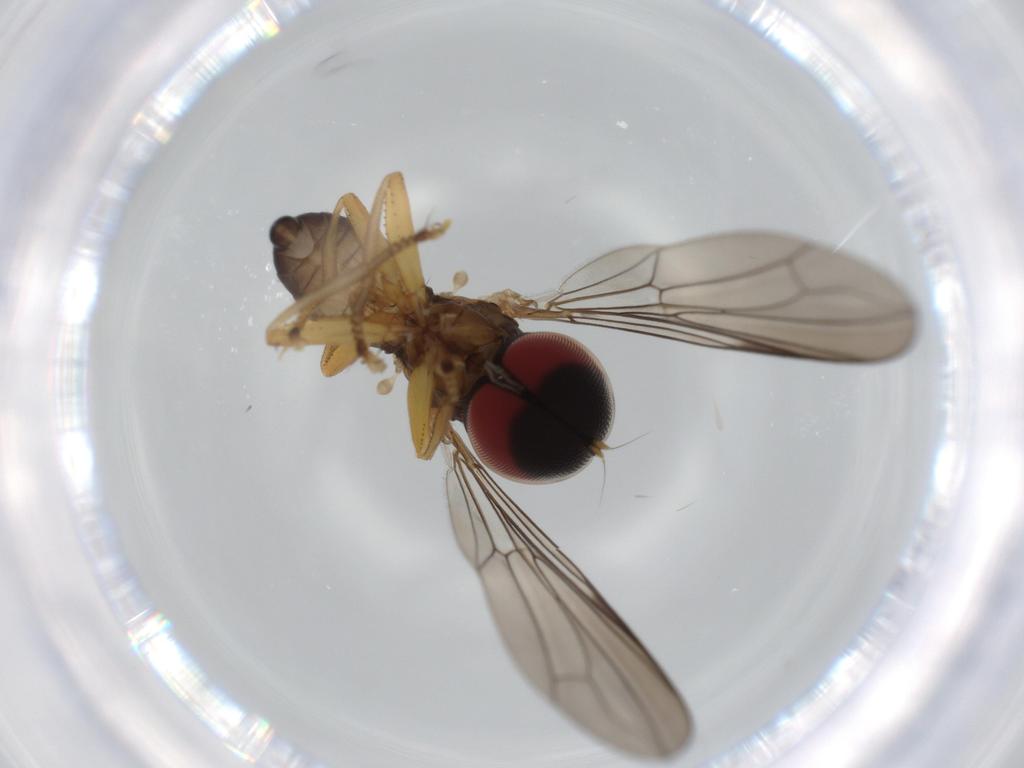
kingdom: Animalia
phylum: Arthropoda
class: Insecta
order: Diptera
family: Pipunculidae
